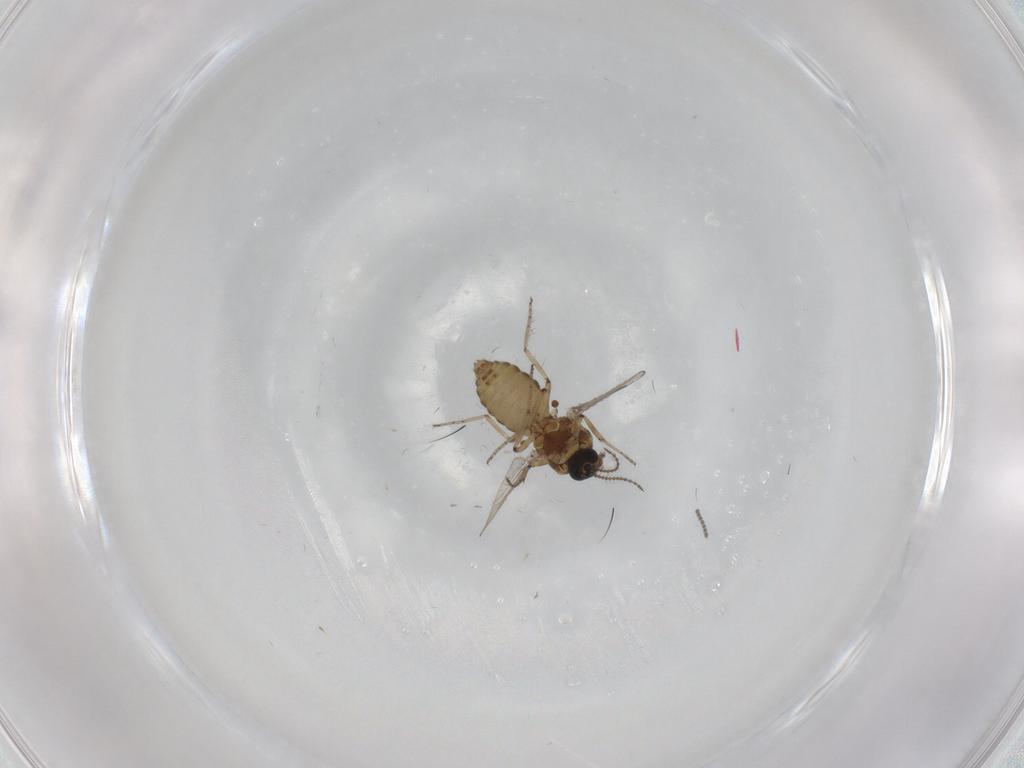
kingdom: Animalia
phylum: Arthropoda
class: Insecta
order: Diptera
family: Ceratopogonidae
